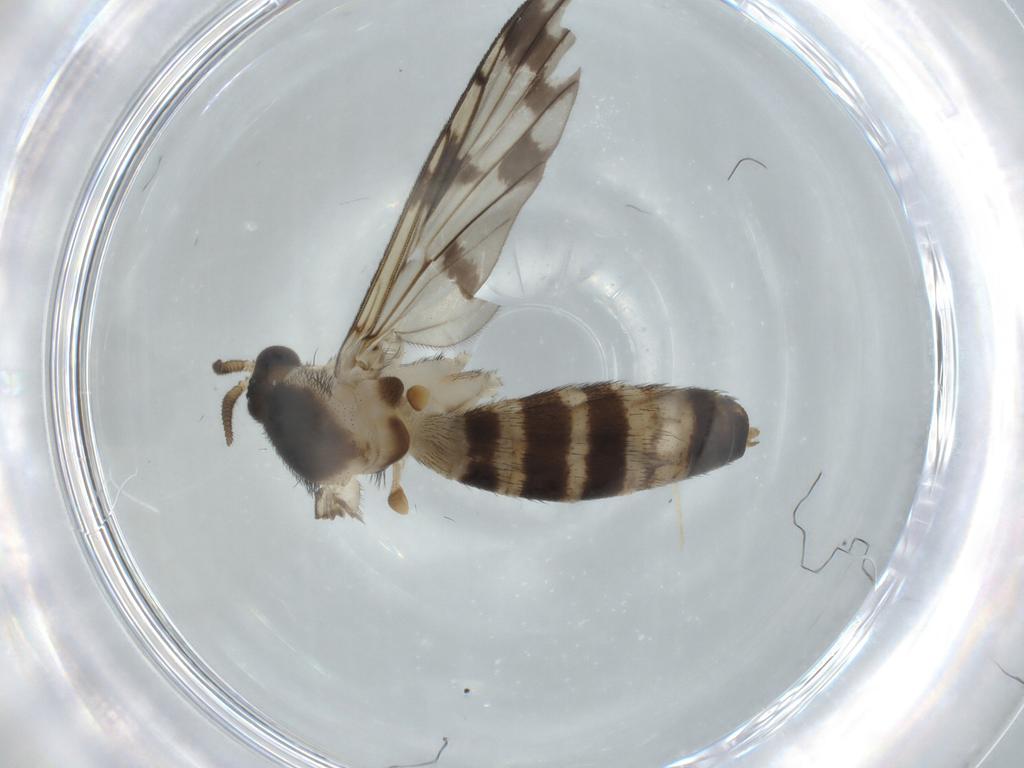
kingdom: Animalia
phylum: Arthropoda
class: Insecta
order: Diptera
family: Keroplatidae
